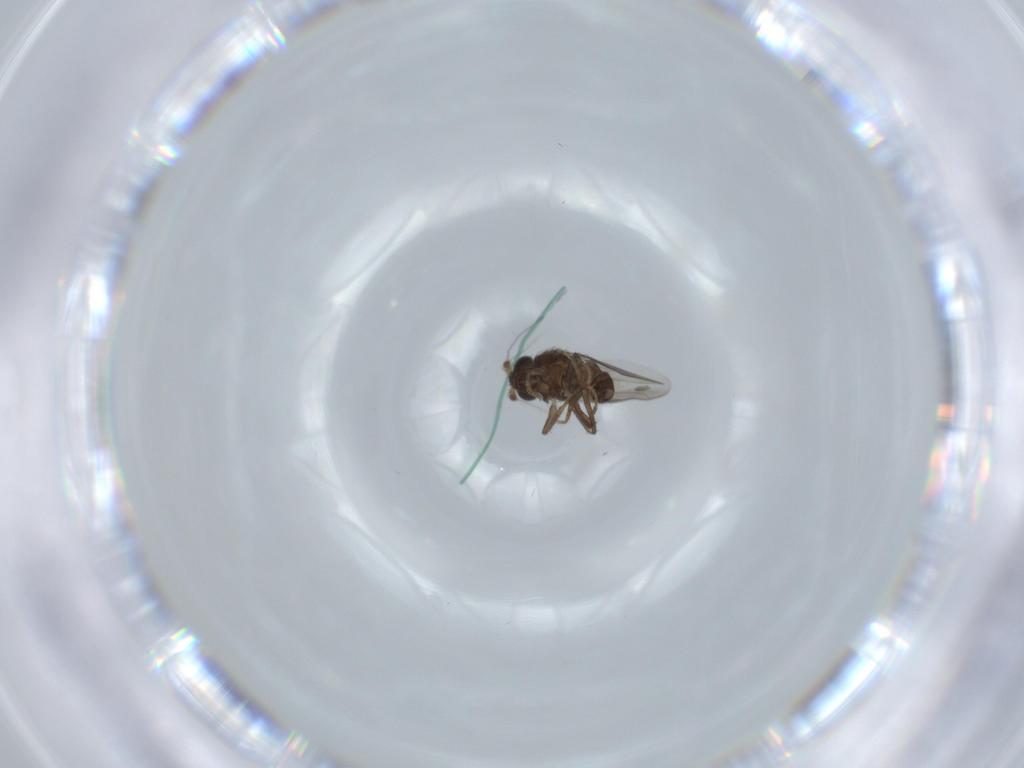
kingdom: Animalia
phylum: Arthropoda
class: Insecta
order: Diptera
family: Sphaeroceridae
